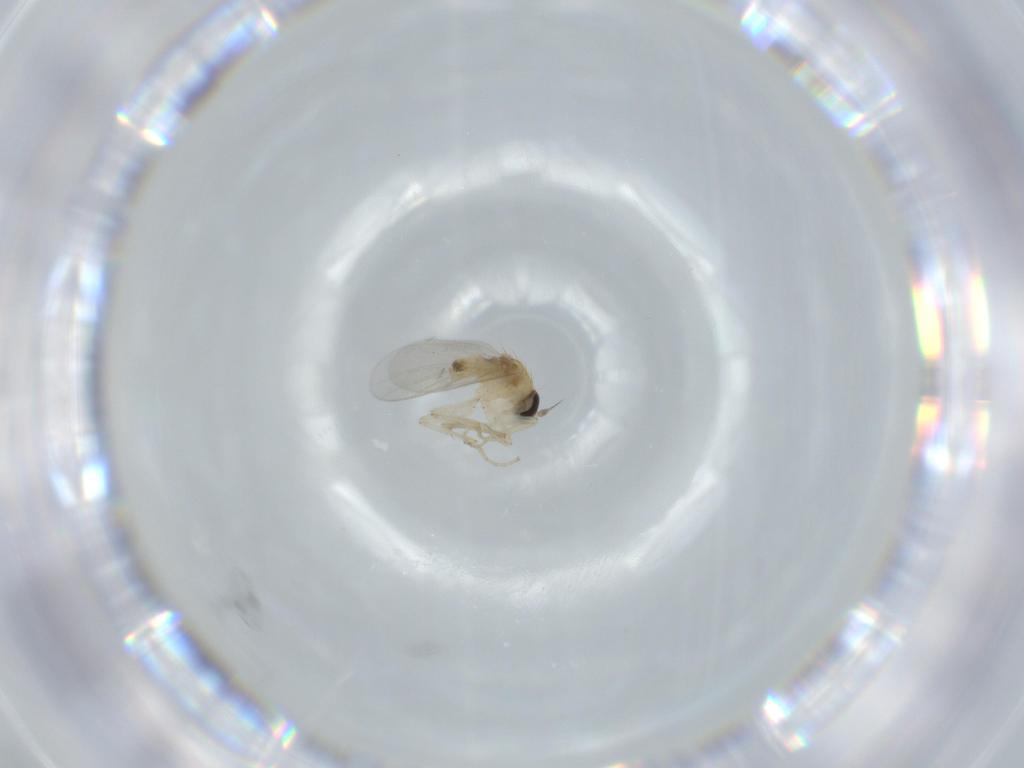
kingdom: Animalia
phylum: Arthropoda
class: Insecta
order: Diptera
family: Hybotidae
